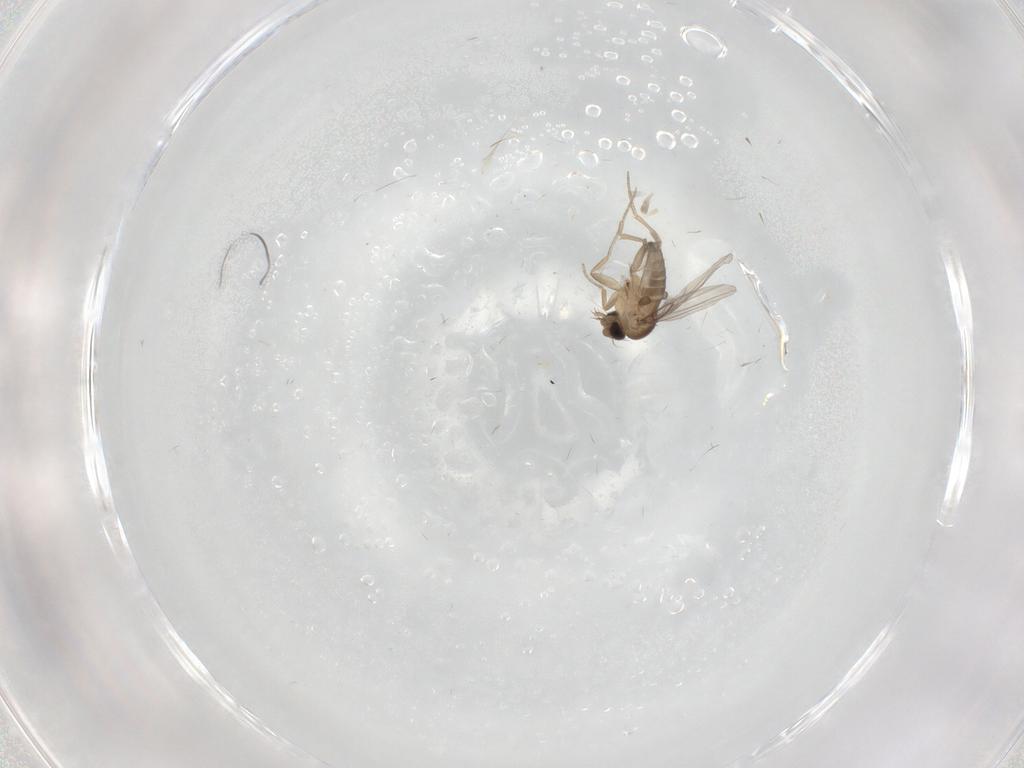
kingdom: Animalia
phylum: Arthropoda
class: Insecta
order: Diptera
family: Phoridae
